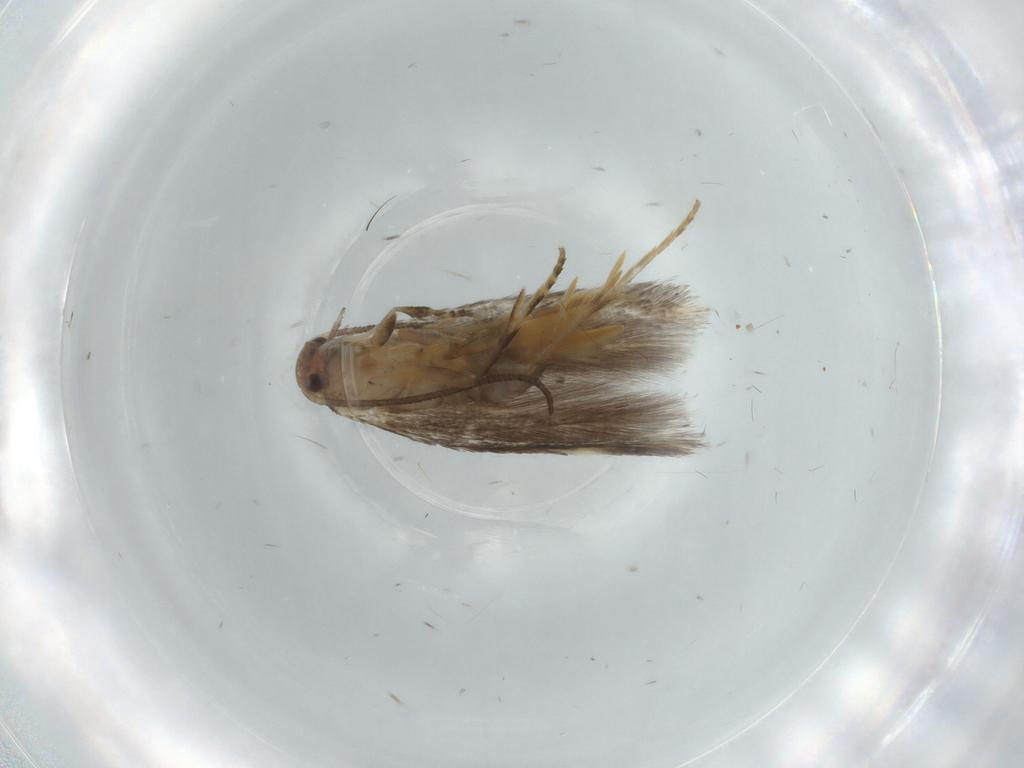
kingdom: Animalia
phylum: Arthropoda
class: Insecta
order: Lepidoptera
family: Elachistidae
